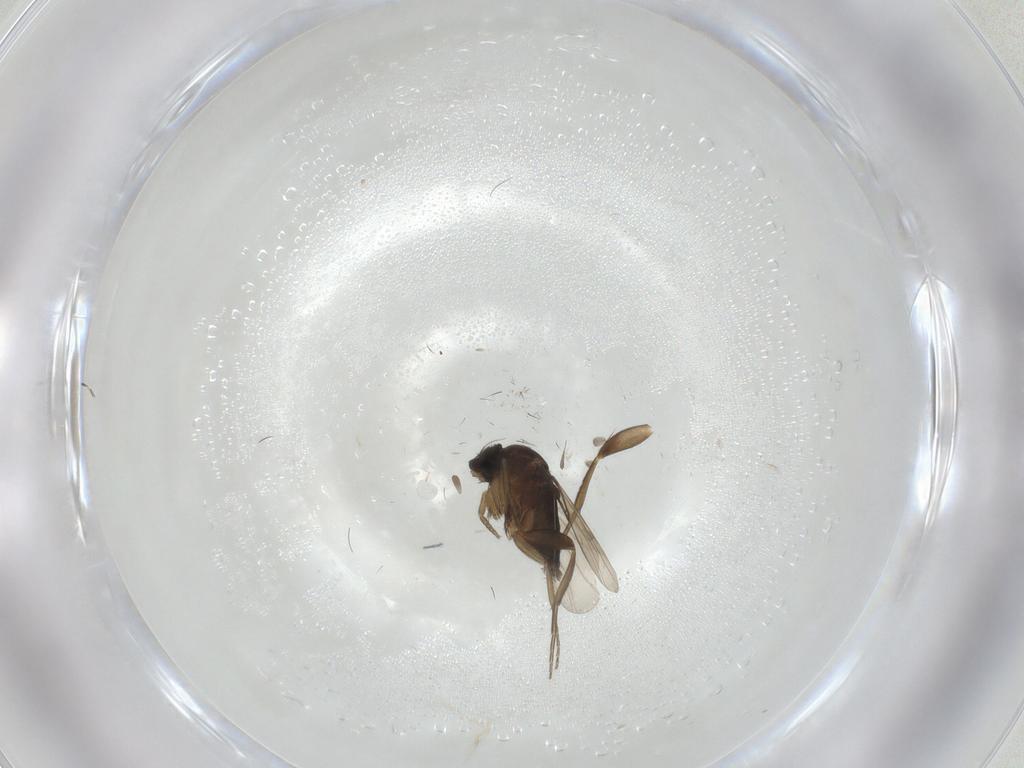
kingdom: Animalia
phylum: Arthropoda
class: Insecta
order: Diptera
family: Phoridae
